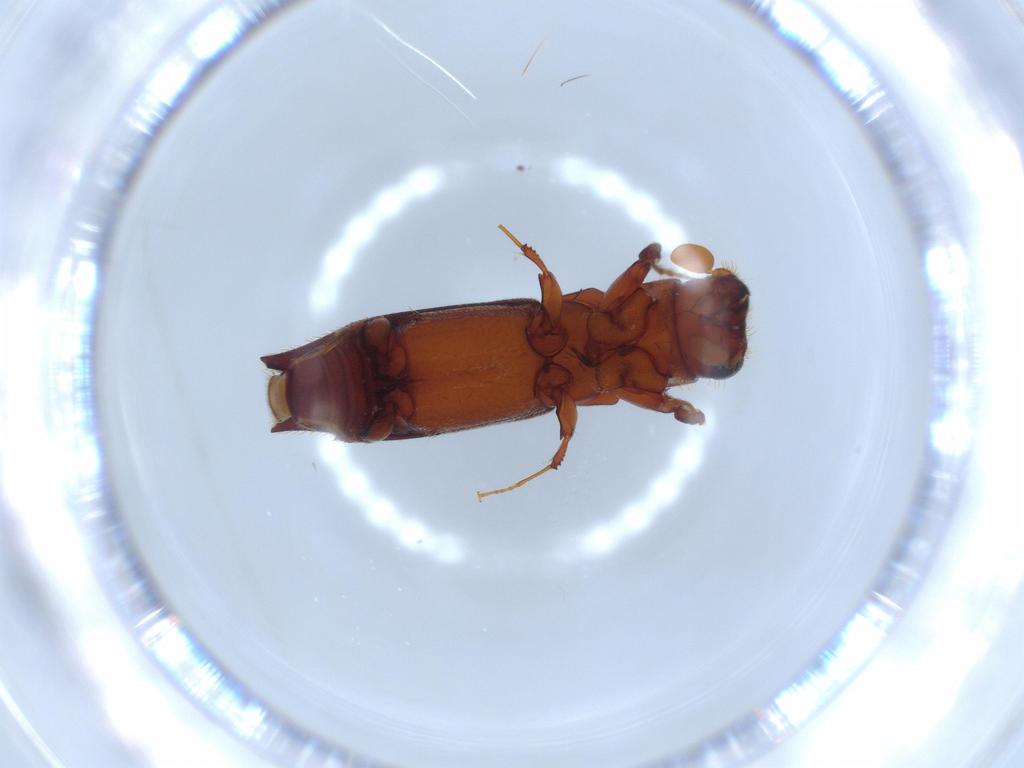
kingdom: Animalia
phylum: Arthropoda
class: Insecta
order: Coleoptera
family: Curculionidae
